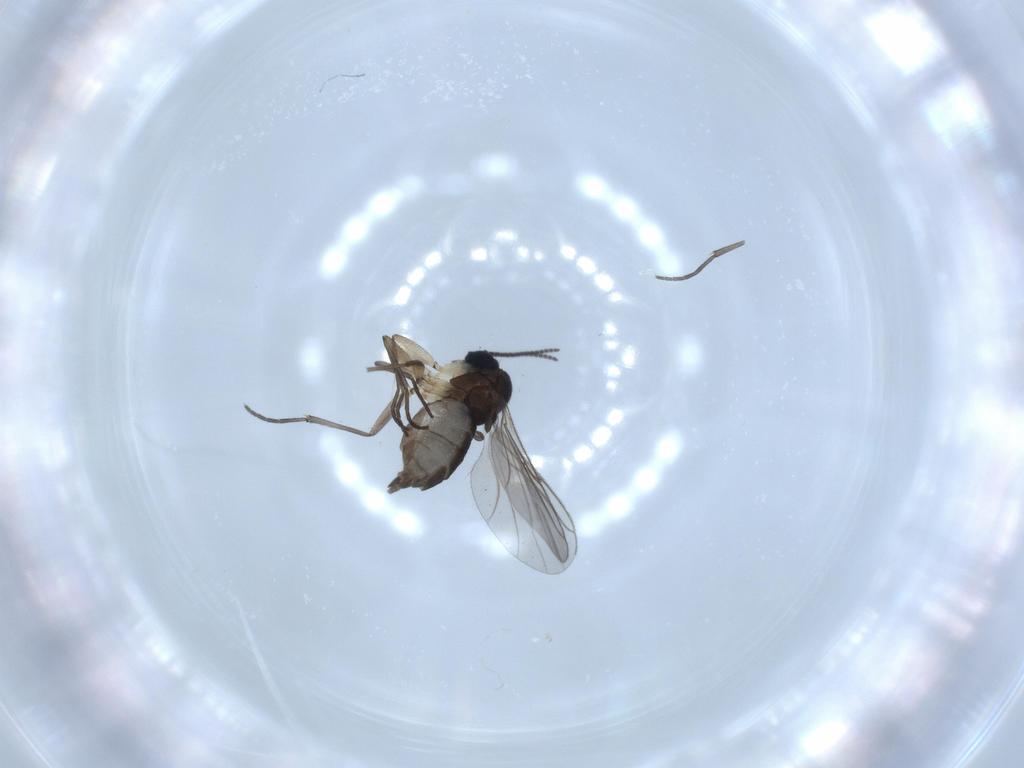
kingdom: Animalia
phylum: Arthropoda
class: Insecta
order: Diptera
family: Sciaridae
